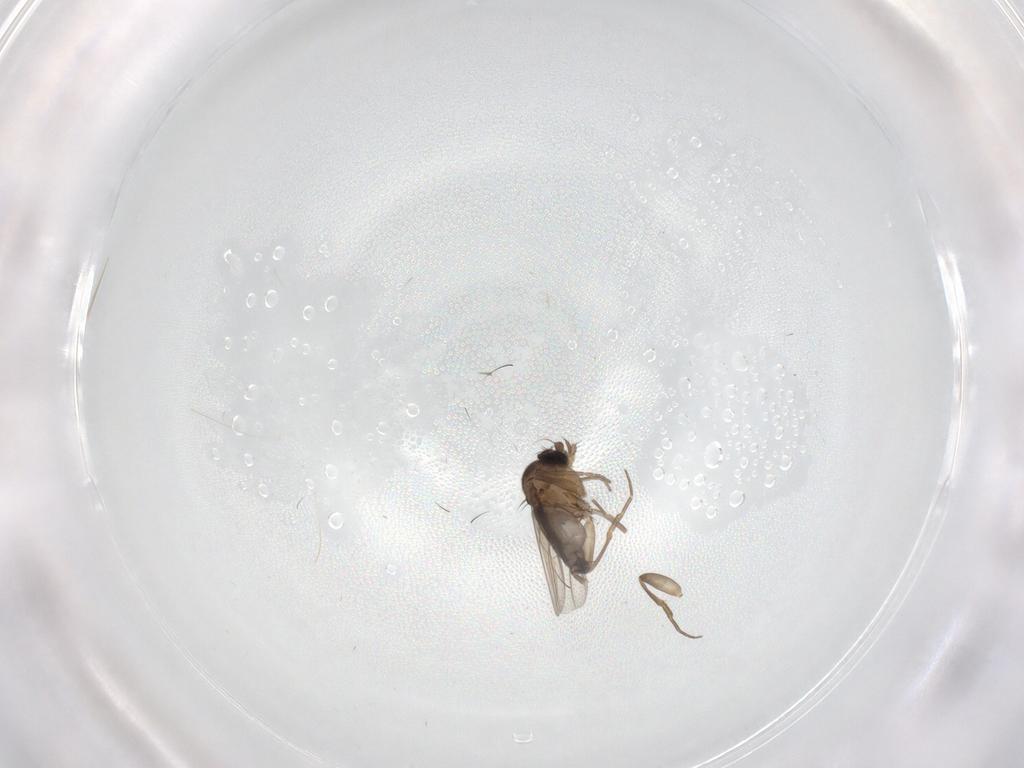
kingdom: Animalia
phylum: Arthropoda
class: Insecta
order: Diptera
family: Phoridae
